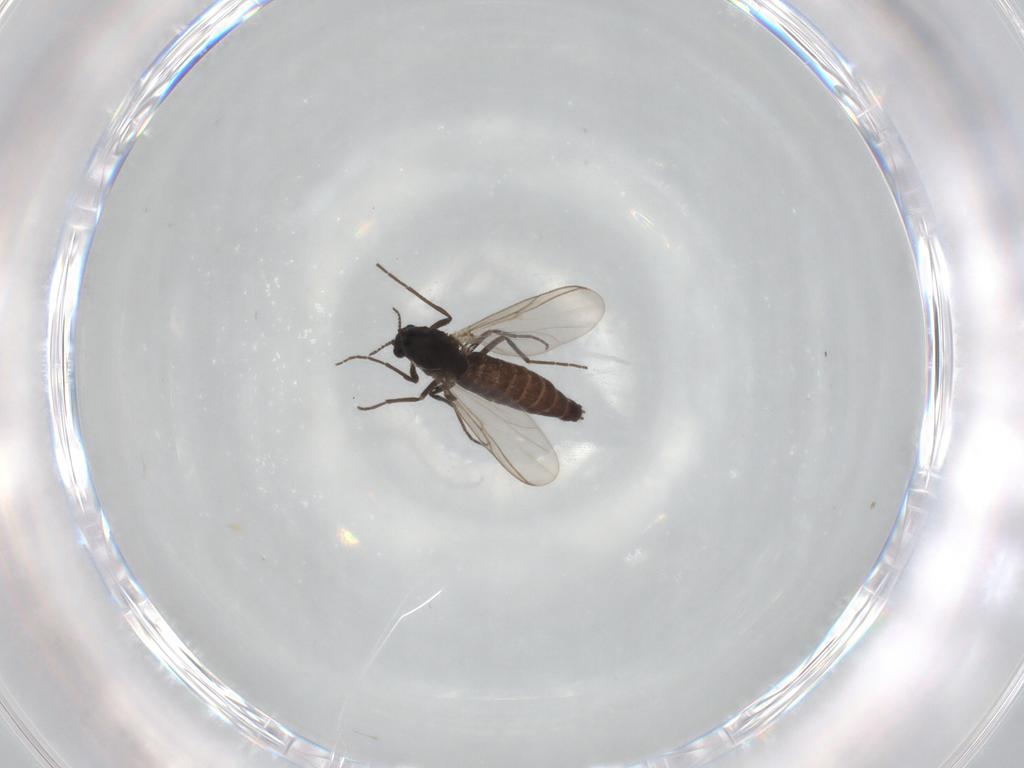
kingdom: Animalia
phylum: Arthropoda
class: Insecta
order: Diptera
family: Chironomidae
